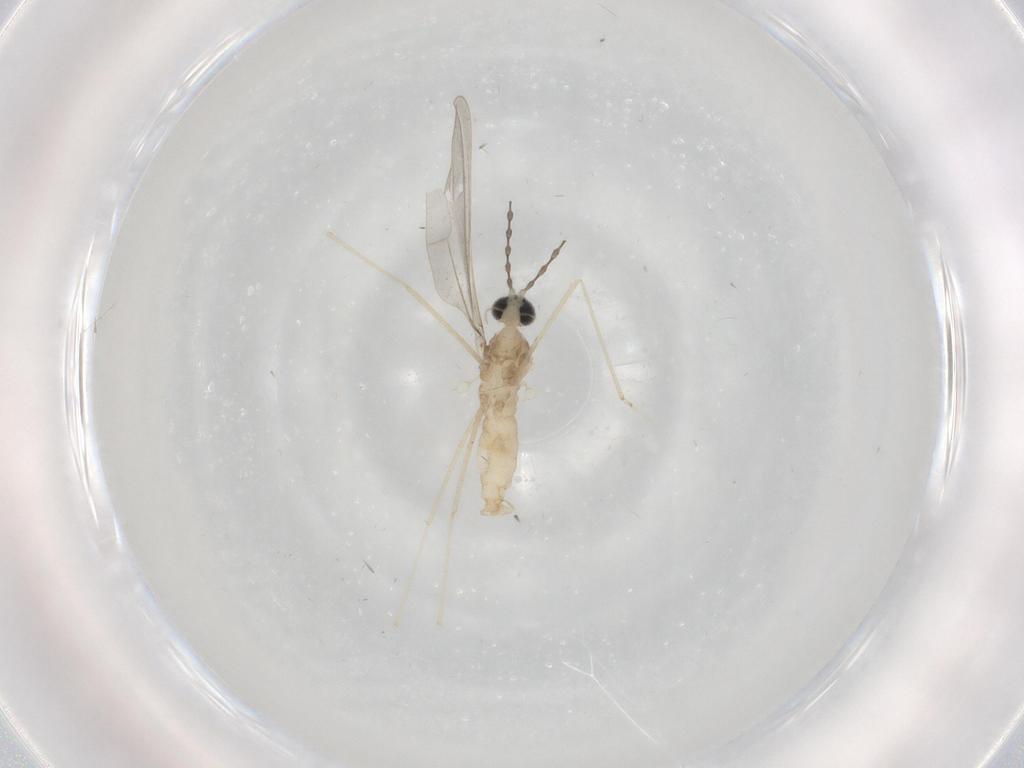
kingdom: Animalia
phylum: Arthropoda
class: Insecta
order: Diptera
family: Cecidomyiidae
